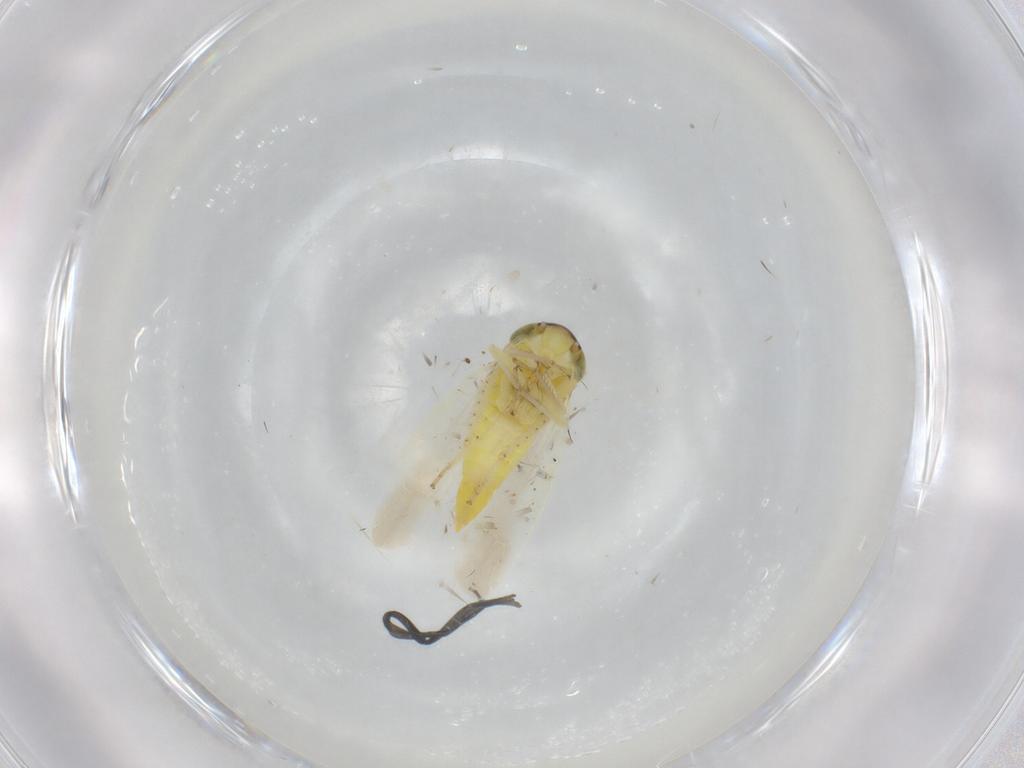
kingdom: Animalia
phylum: Arthropoda
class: Insecta
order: Hemiptera
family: Cicadellidae
